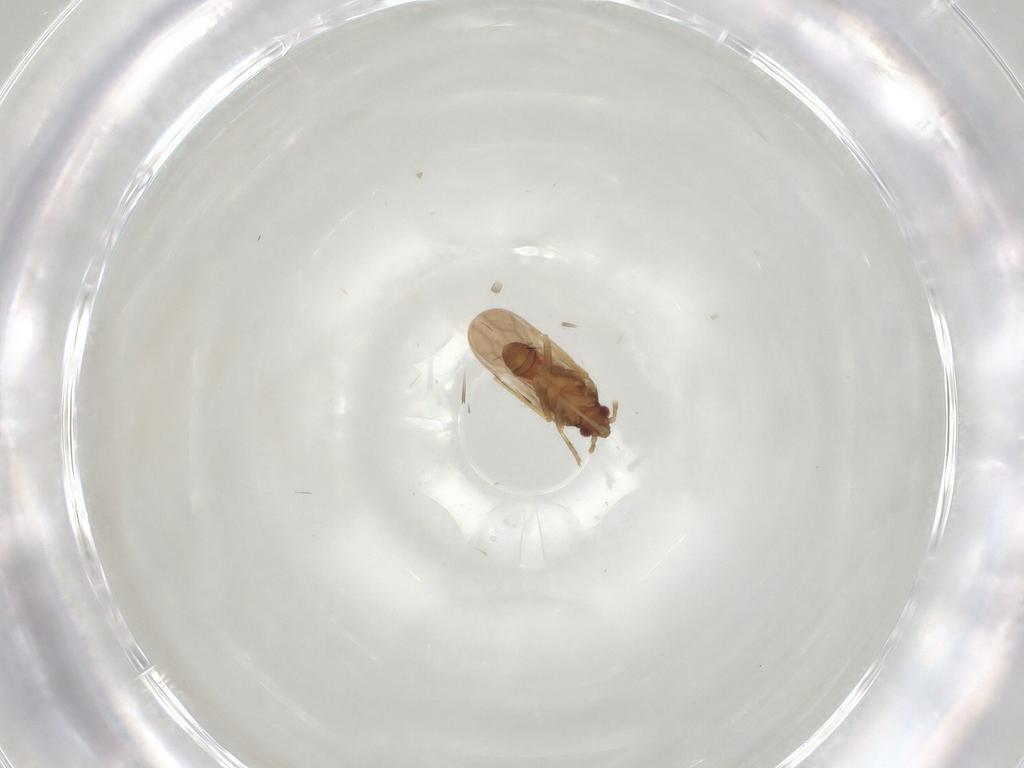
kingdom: Animalia
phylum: Arthropoda
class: Insecta
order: Hemiptera
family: Ceratocombidae
